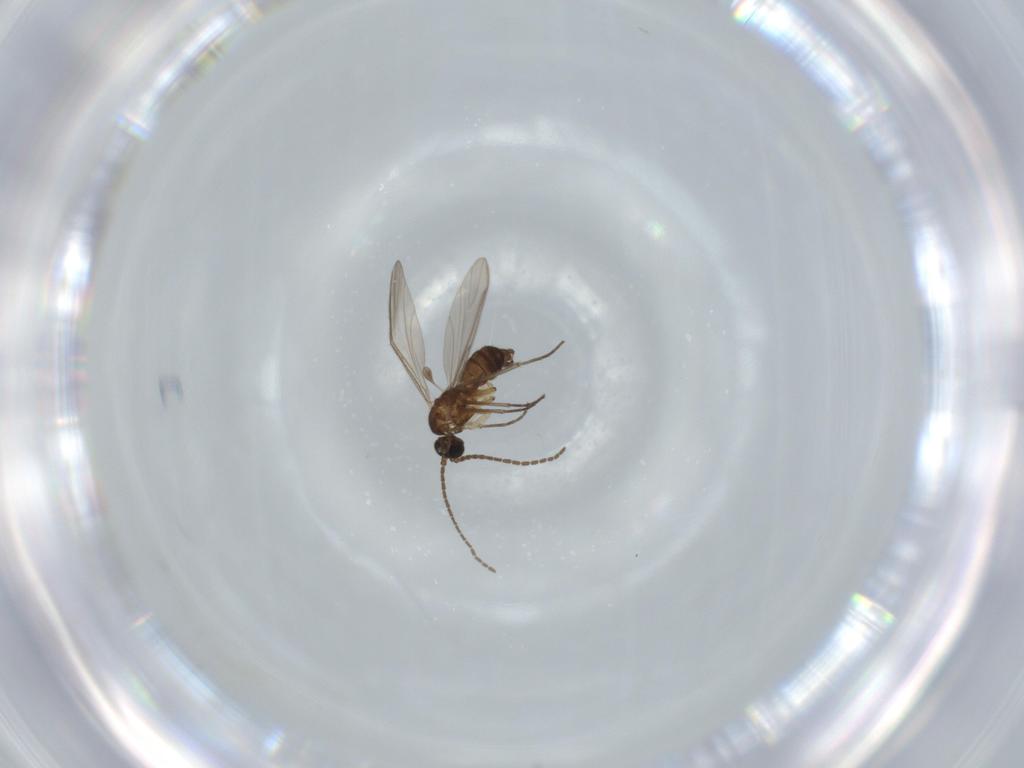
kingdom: Animalia
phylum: Arthropoda
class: Insecta
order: Diptera
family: Sciaridae
